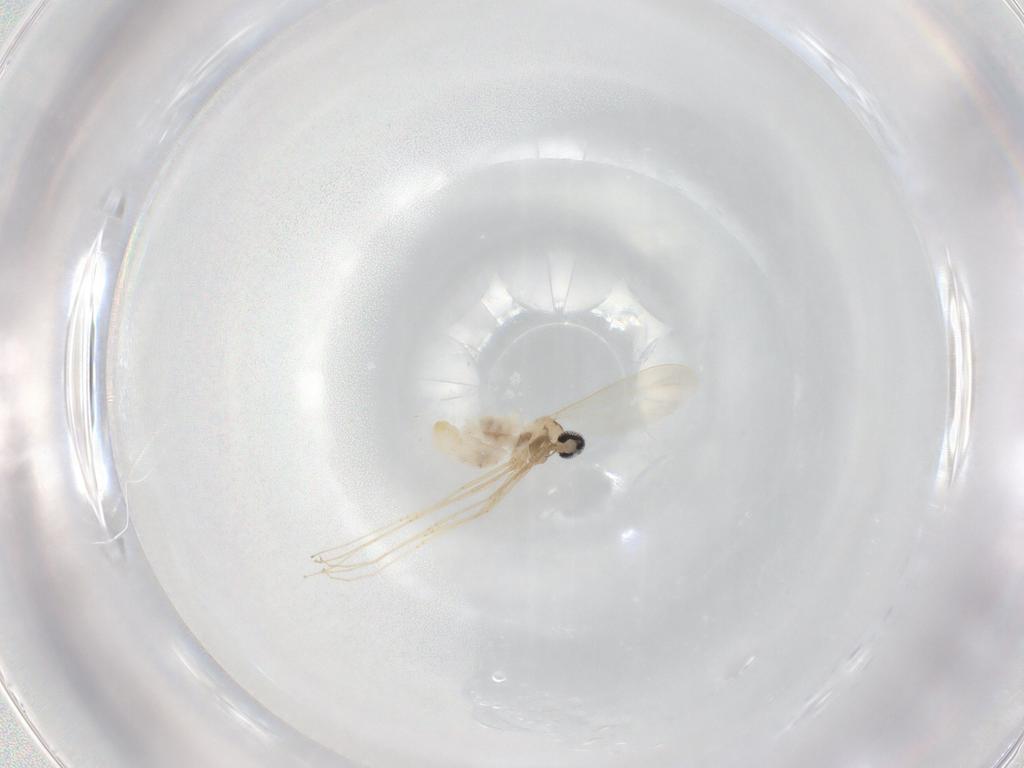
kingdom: Animalia
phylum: Arthropoda
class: Insecta
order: Diptera
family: Cecidomyiidae
